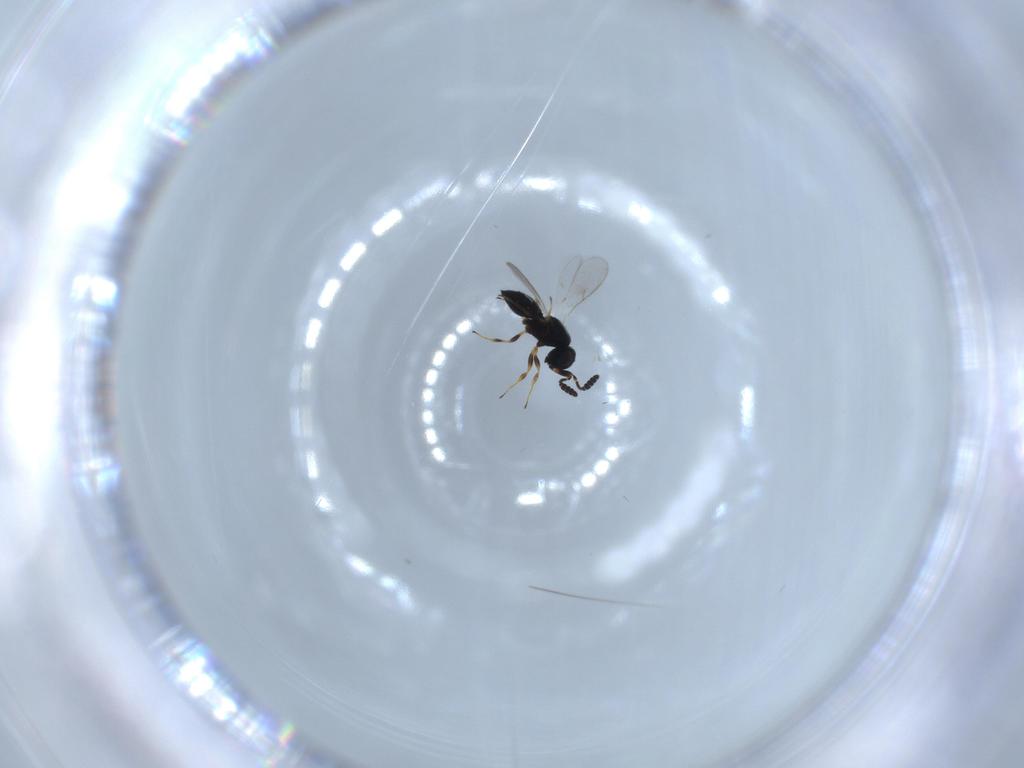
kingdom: Animalia
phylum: Arthropoda
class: Insecta
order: Hymenoptera
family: Scelionidae
